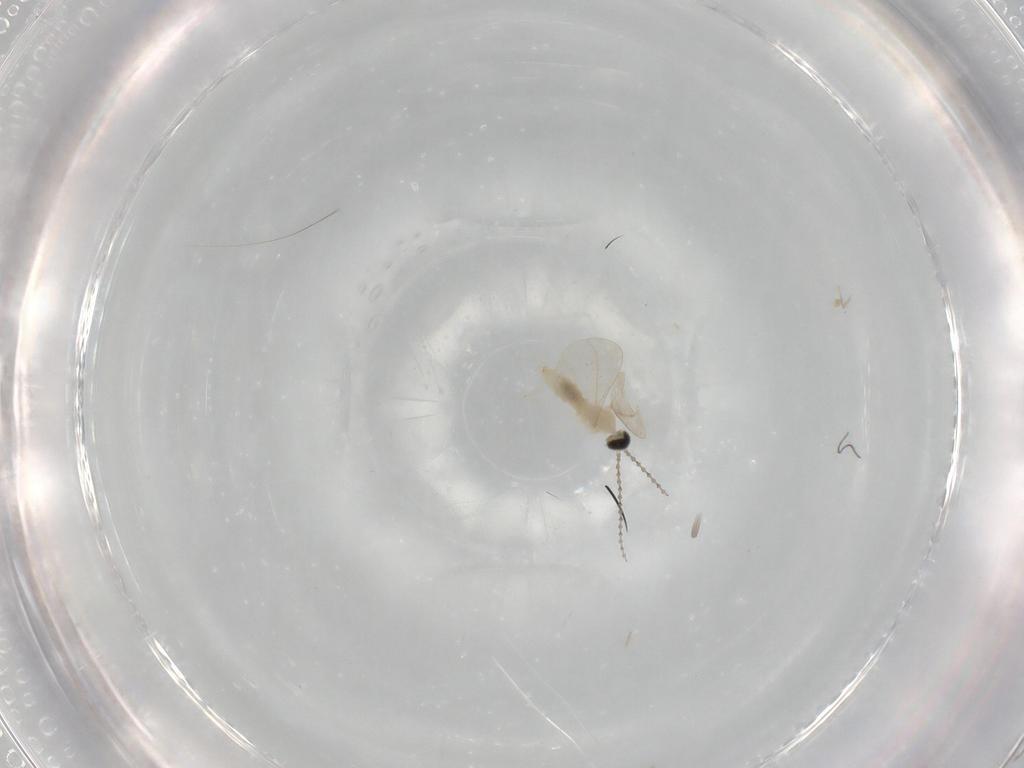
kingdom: Animalia
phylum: Arthropoda
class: Insecta
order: Diptera
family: Cecidomyiidae
